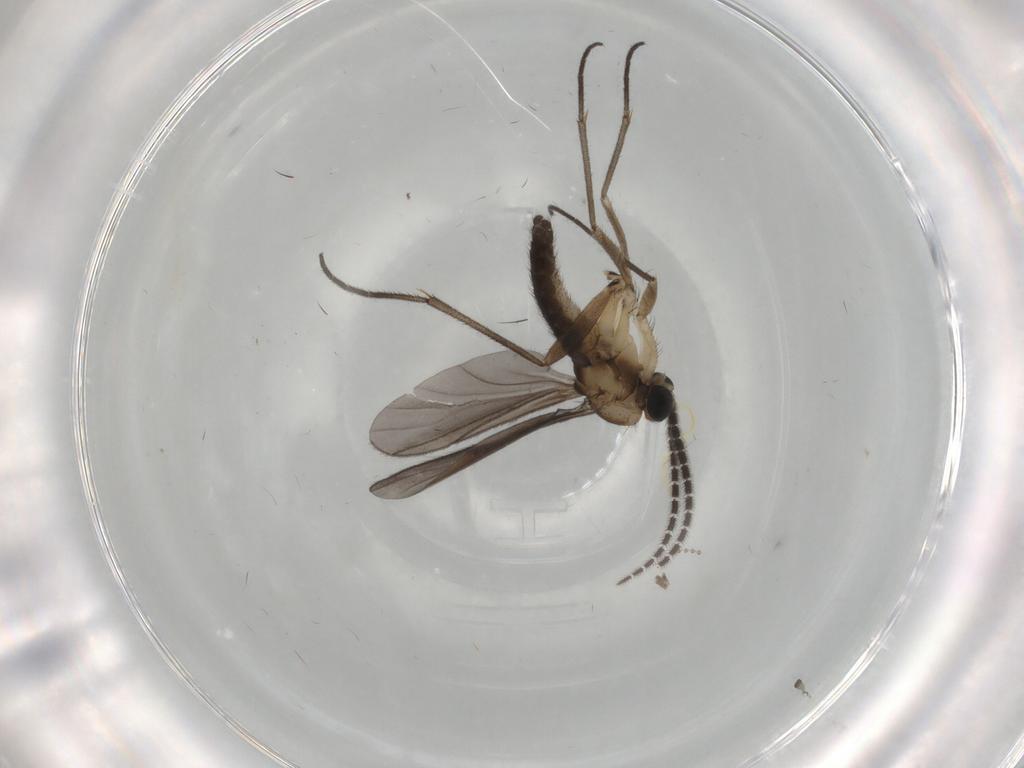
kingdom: Animalia
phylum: Arthropoda
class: Insecta
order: Diptera
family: Sciaridae
